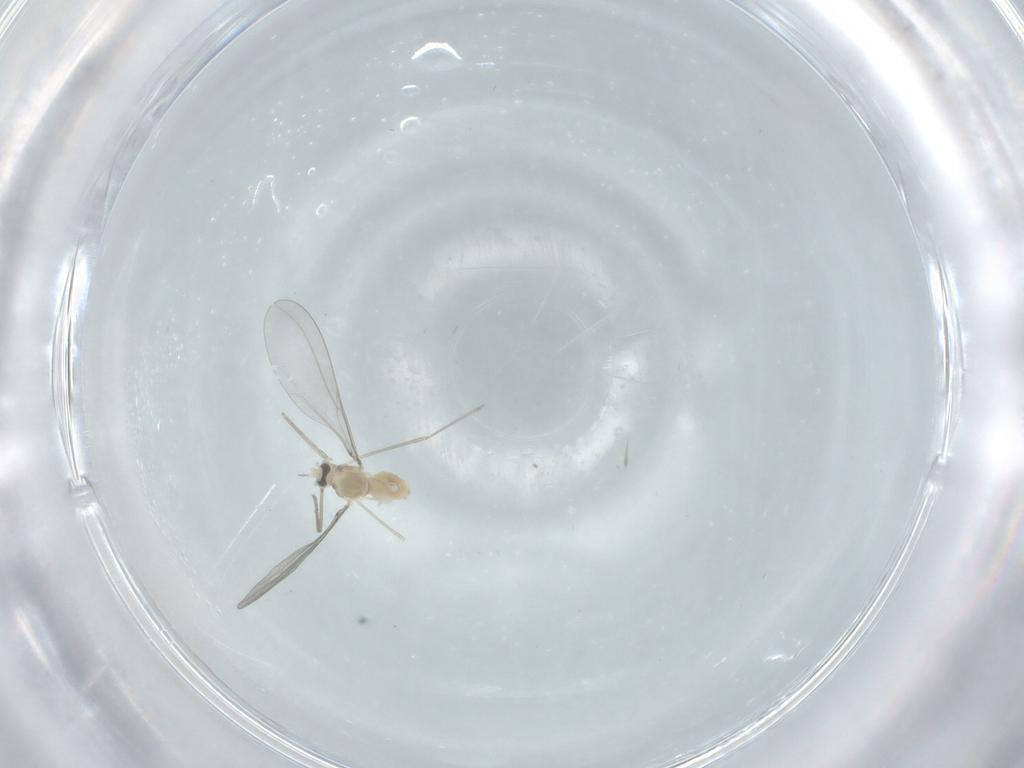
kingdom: Animalia
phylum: Arthropoda
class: Insecta
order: Diptera
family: Cecidomyiidae
